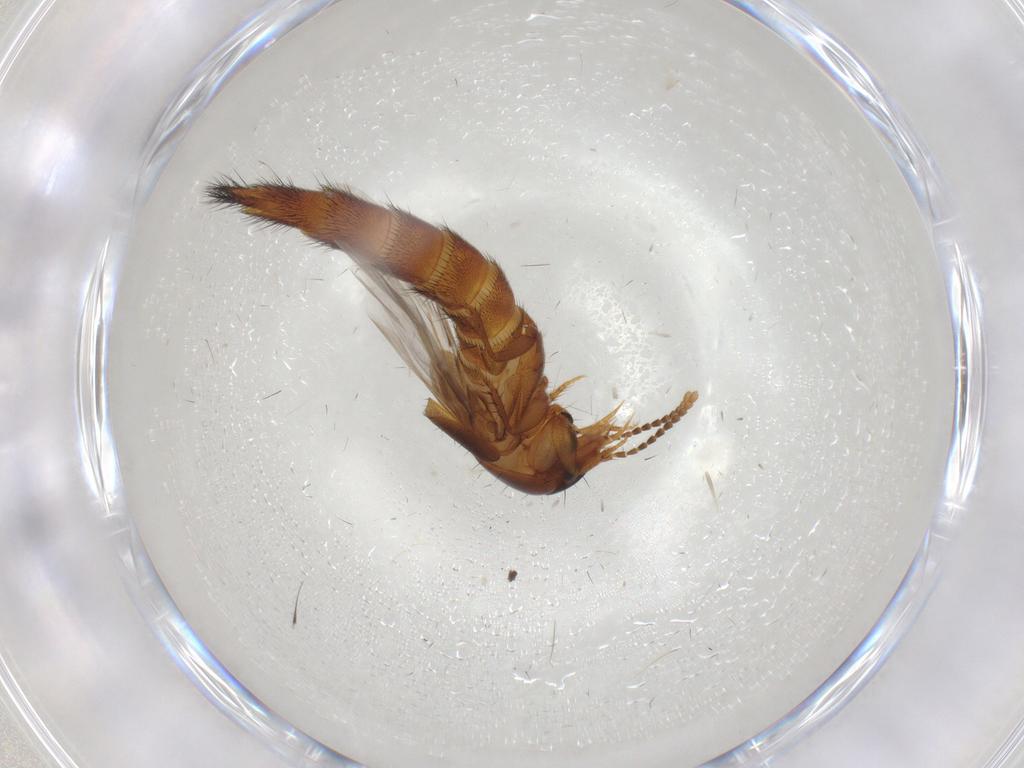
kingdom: Animalia
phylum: Arthropoda
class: Insecta
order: Coleoptera
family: Staphylinidae
